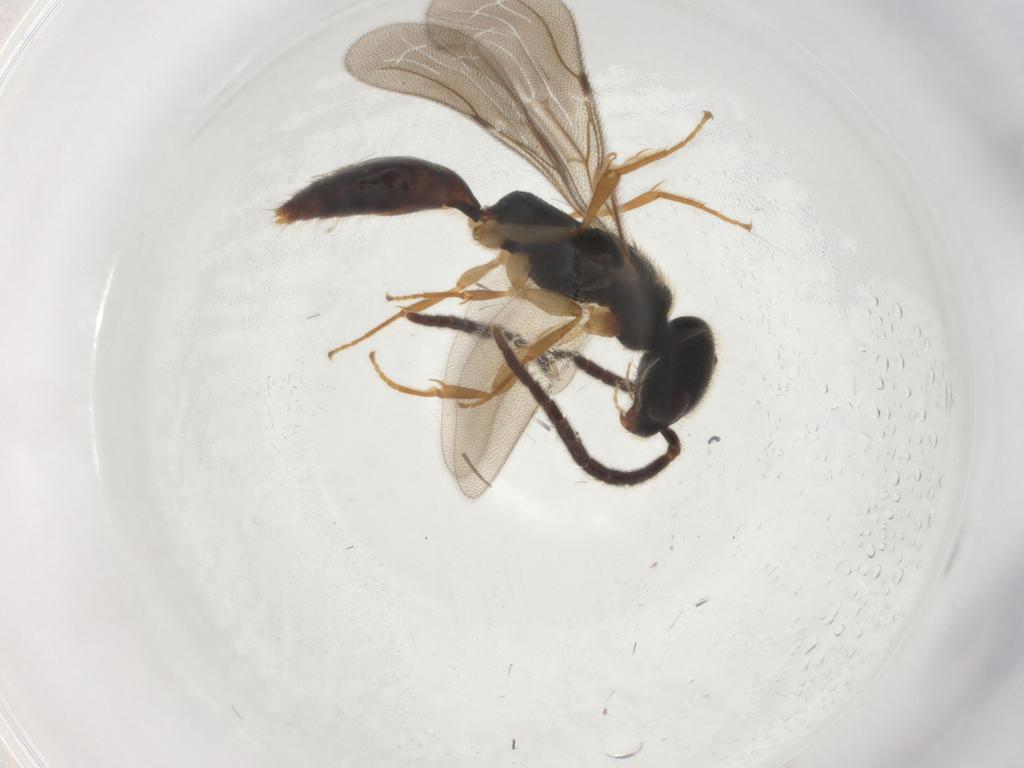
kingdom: Animalia
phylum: Arthropoda
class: Insecta
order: Hymenoptera
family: Bethylidae
